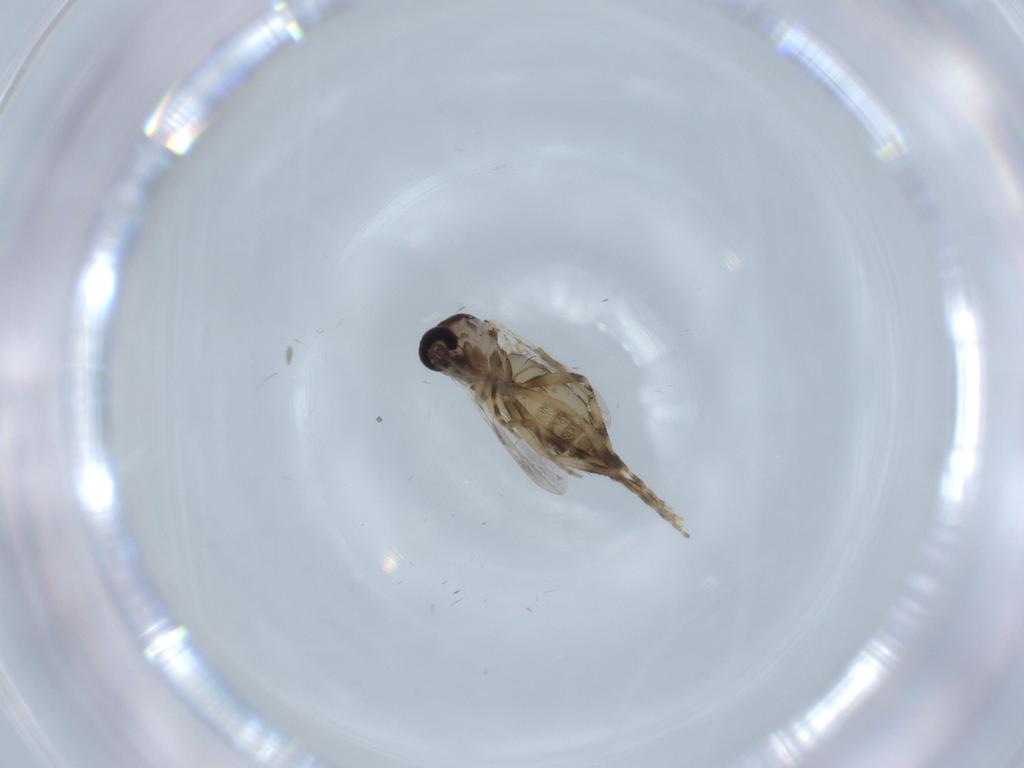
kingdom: Animalia
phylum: Arthropoda
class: Insecta
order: Diptera
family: Ceratopogonidae
